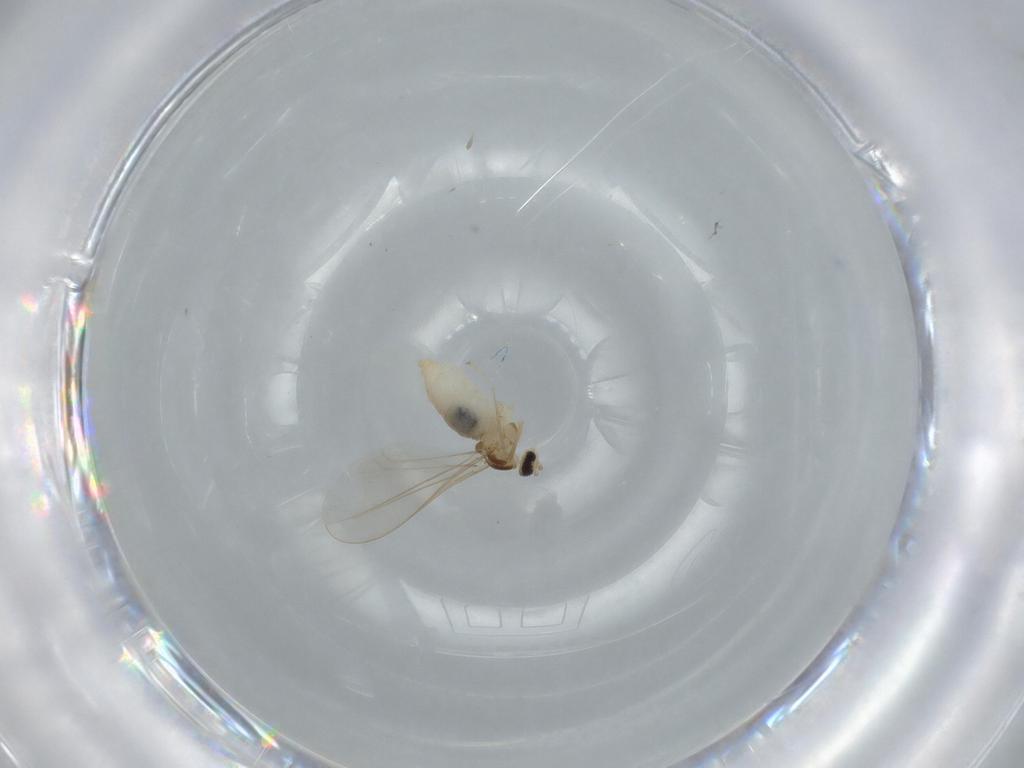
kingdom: Animalia
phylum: Arthropoda
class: Insecta
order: Diptera
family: Cecidomyiidae
